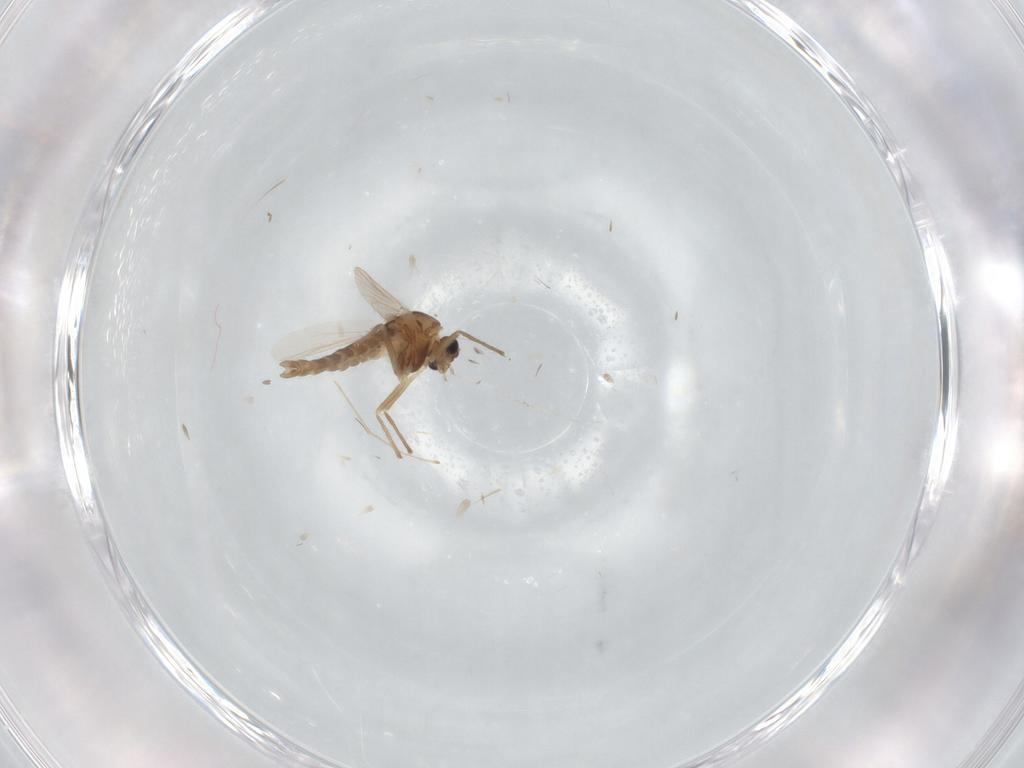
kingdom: Animalia
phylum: Arthropoda
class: Insecta
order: Diptera
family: Chironomidae
